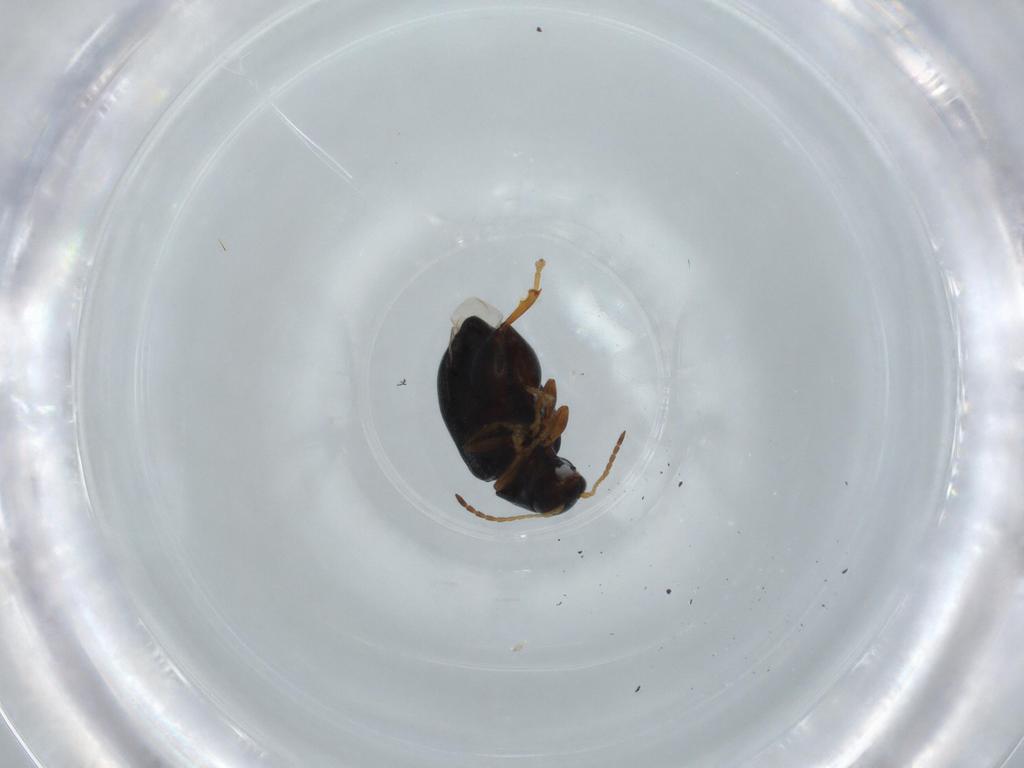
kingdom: Animalia
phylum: Arthropoda
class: Insecta
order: Coleoptera
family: Chrysomelidae
